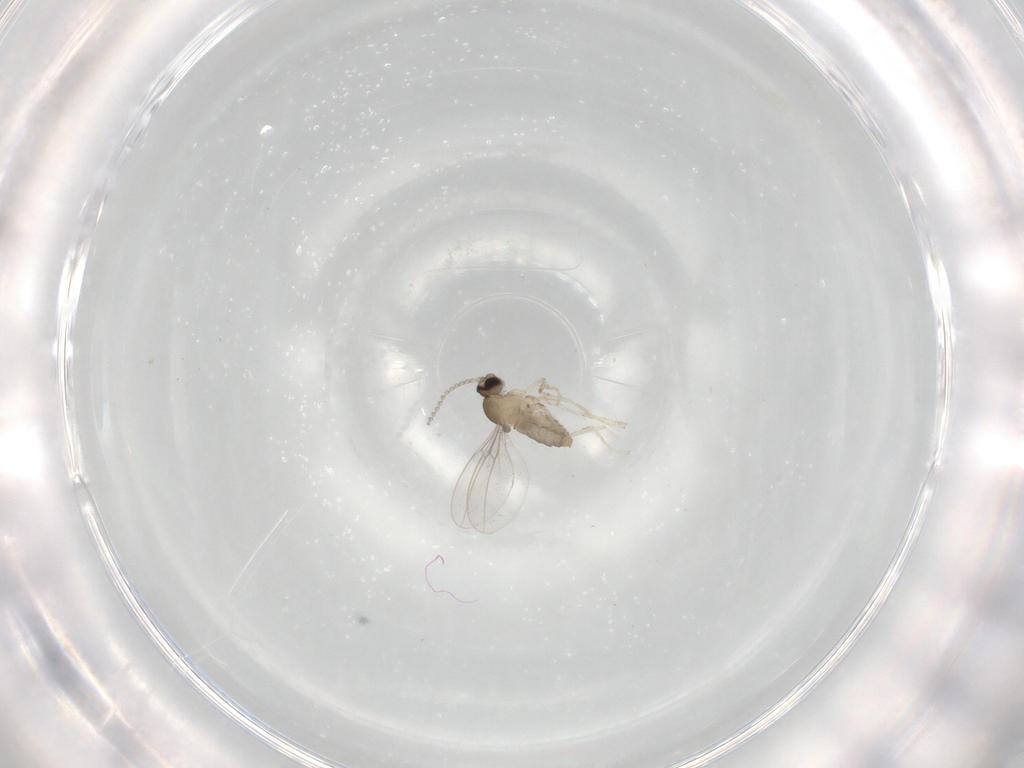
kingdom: Animalia
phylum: Arthropoda
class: Insecta
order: Diptera
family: Cecidomyiidae
